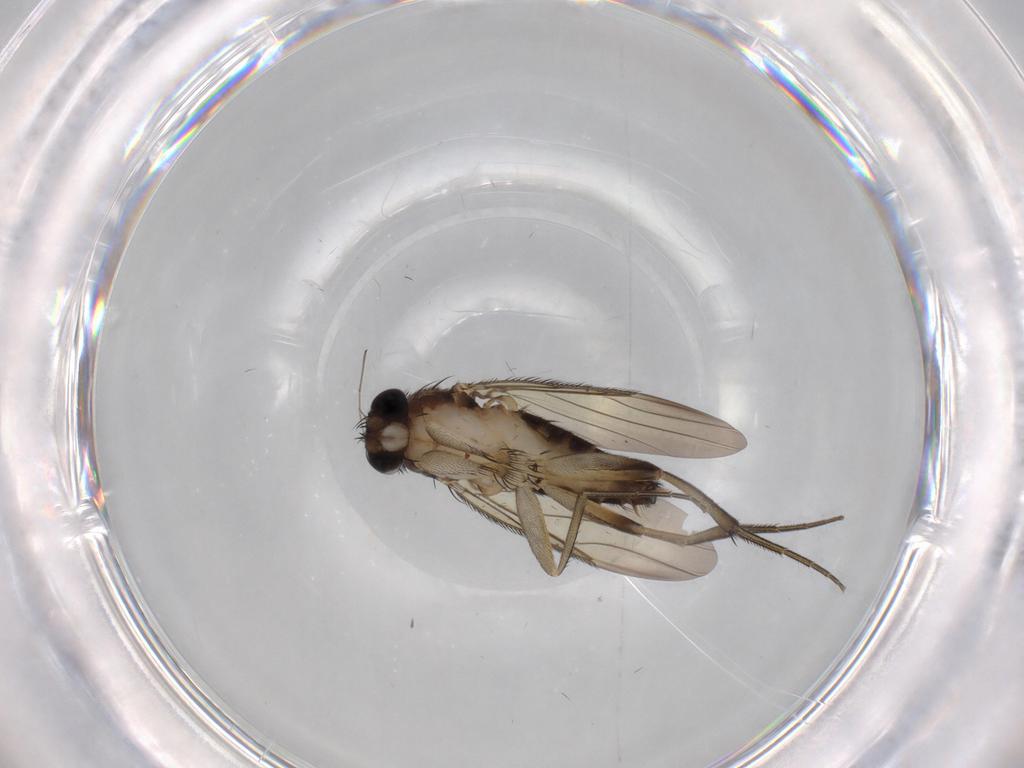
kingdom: Animalia
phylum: Arthropoda
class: Insecta
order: Diptera
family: Phoridae
